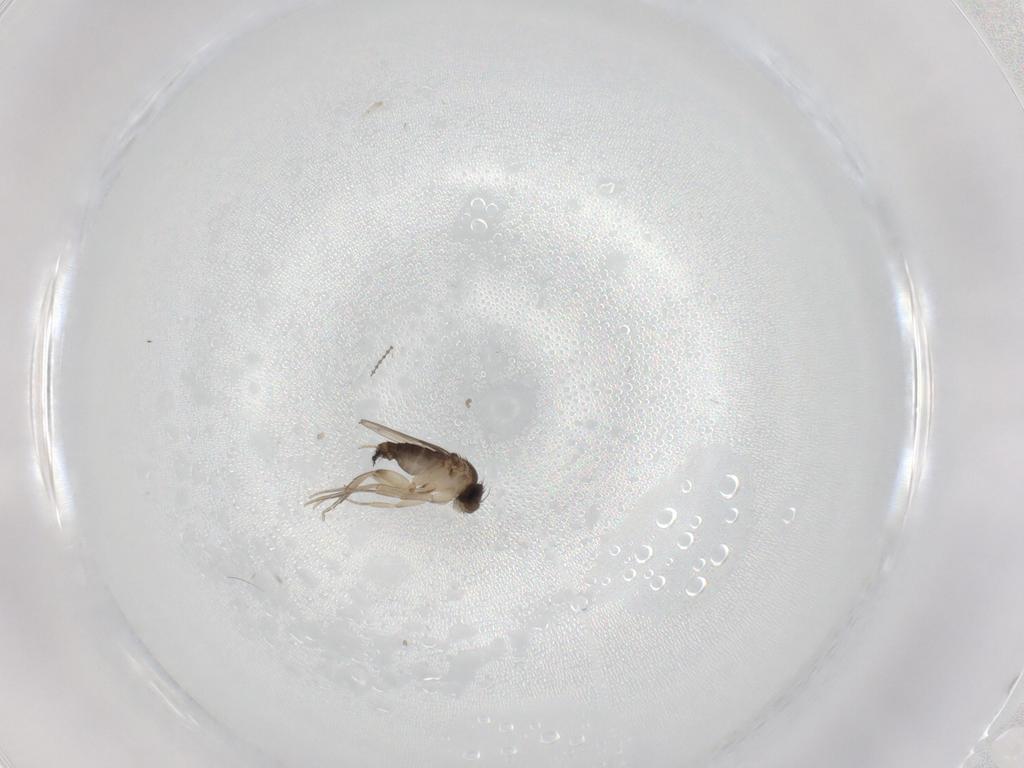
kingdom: Animalia
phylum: Arthropoda
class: Insecta
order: Diptera
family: Phoridae
